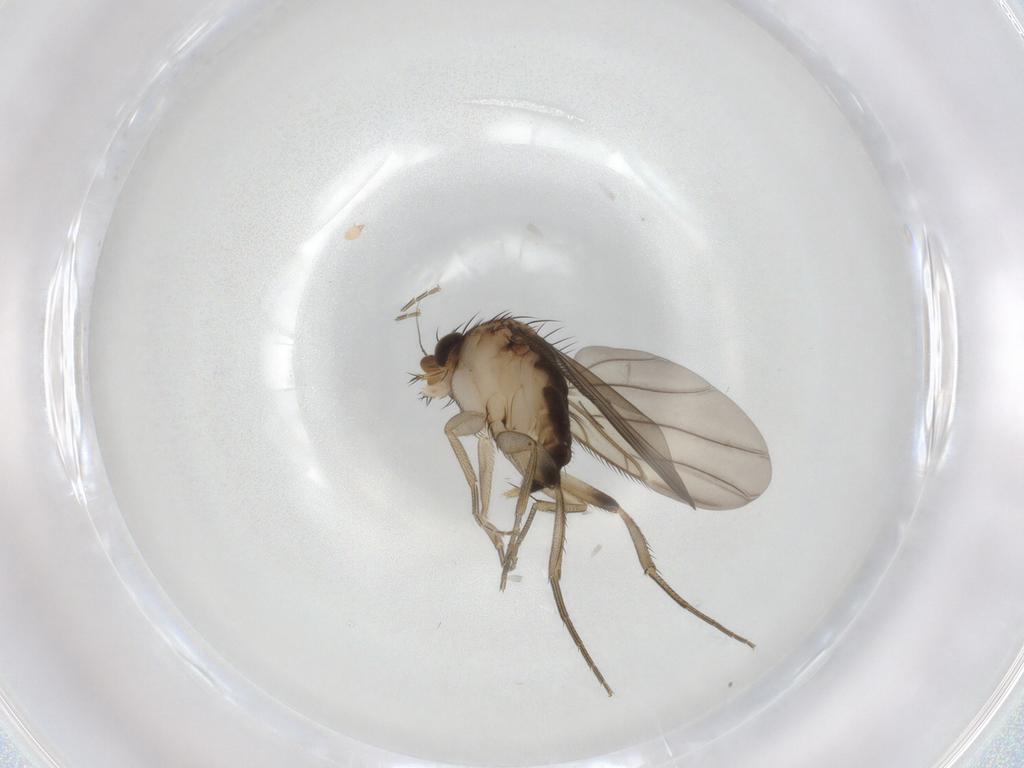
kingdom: Animalia
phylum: Arthropoda
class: Insecta
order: Diptera
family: Phoridae
